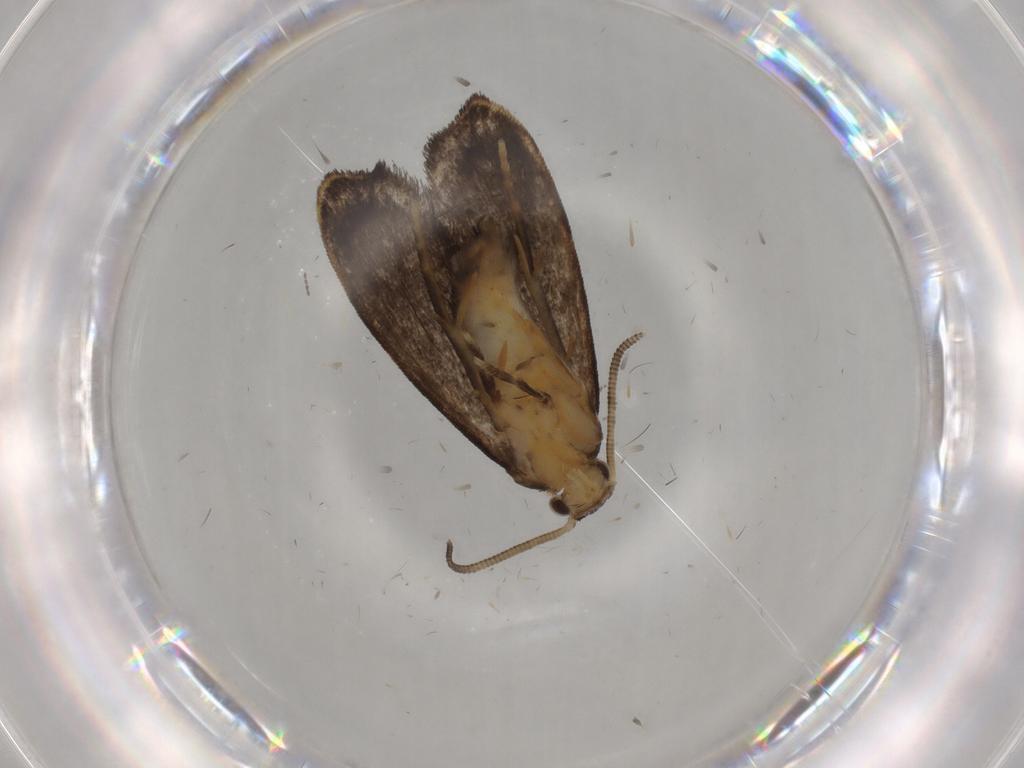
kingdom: Animalia
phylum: Arthropoda
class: Insecta
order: Lepidoptera
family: Dryadaulidae
